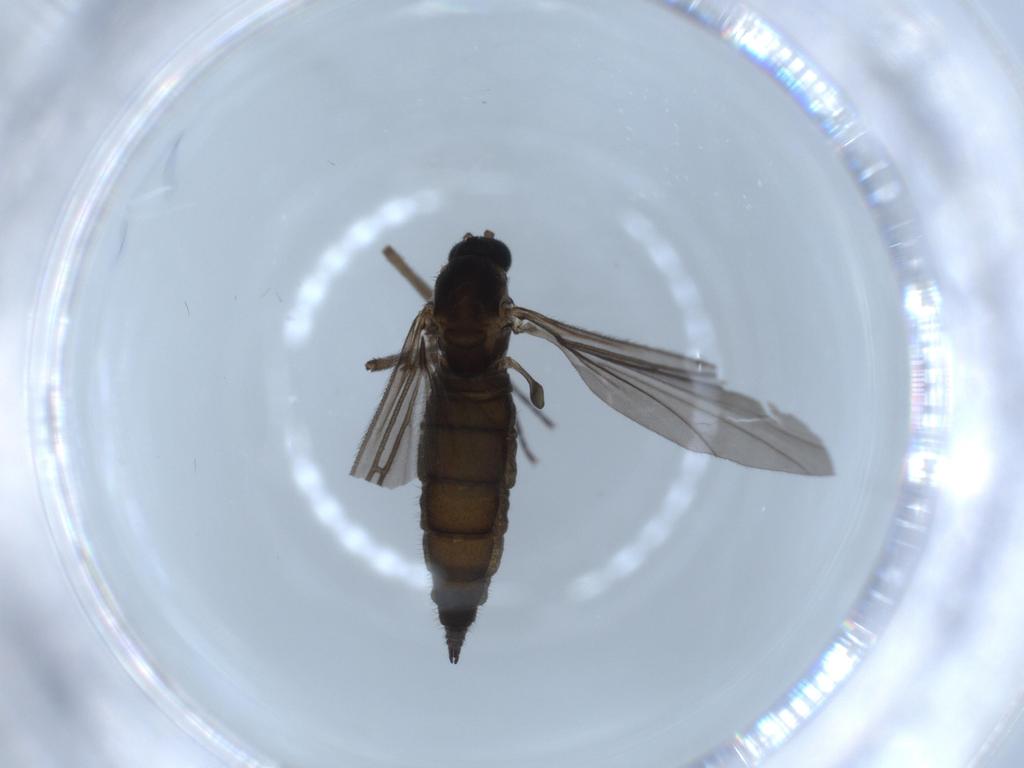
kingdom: Animalia
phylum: Arthropoda
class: Insecta
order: Diptera
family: Sciaridae
